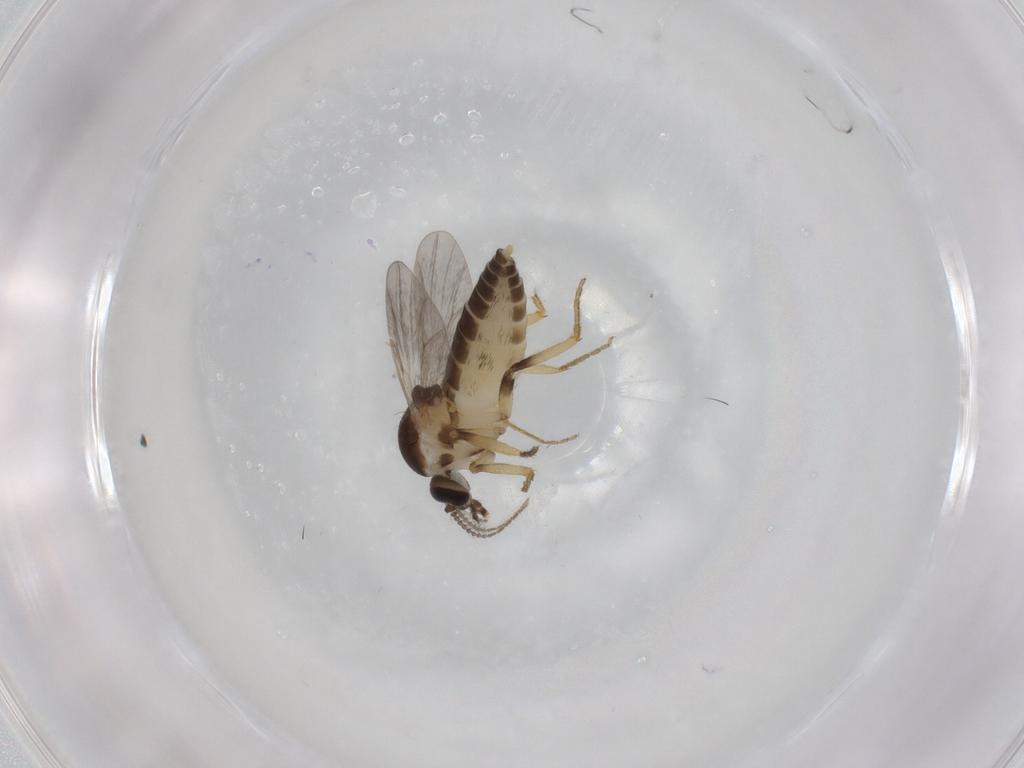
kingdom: Animalia
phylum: Arthropoda
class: Insecta
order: Diptera
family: Ceratopogonidae
